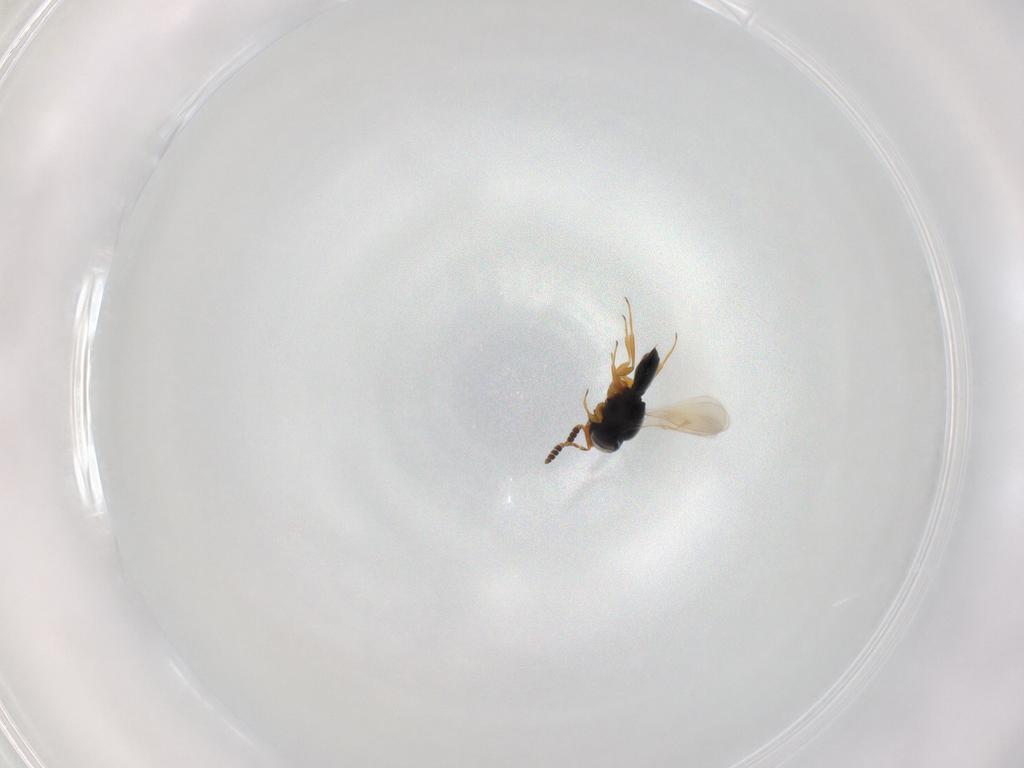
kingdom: Animalia
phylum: Arthropoda
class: Insecta
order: Hymenoptera
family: Scelionidae
